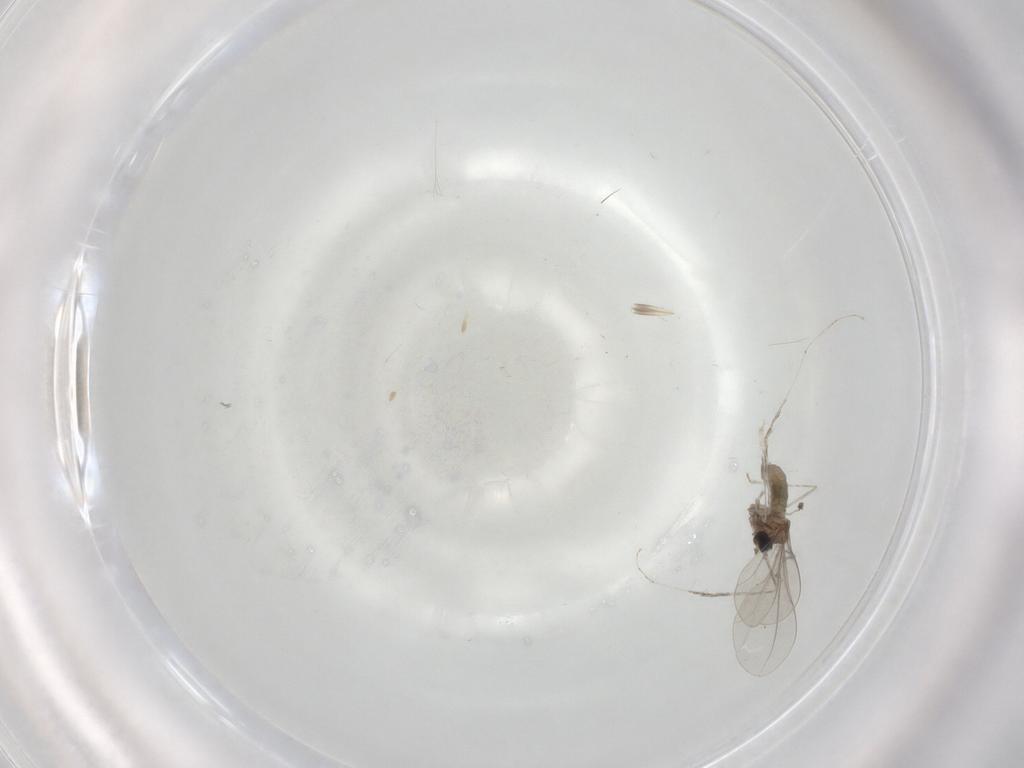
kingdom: Animalia
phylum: Arthropoda
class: Insecta
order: Diptera
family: Cecidomyiidae
